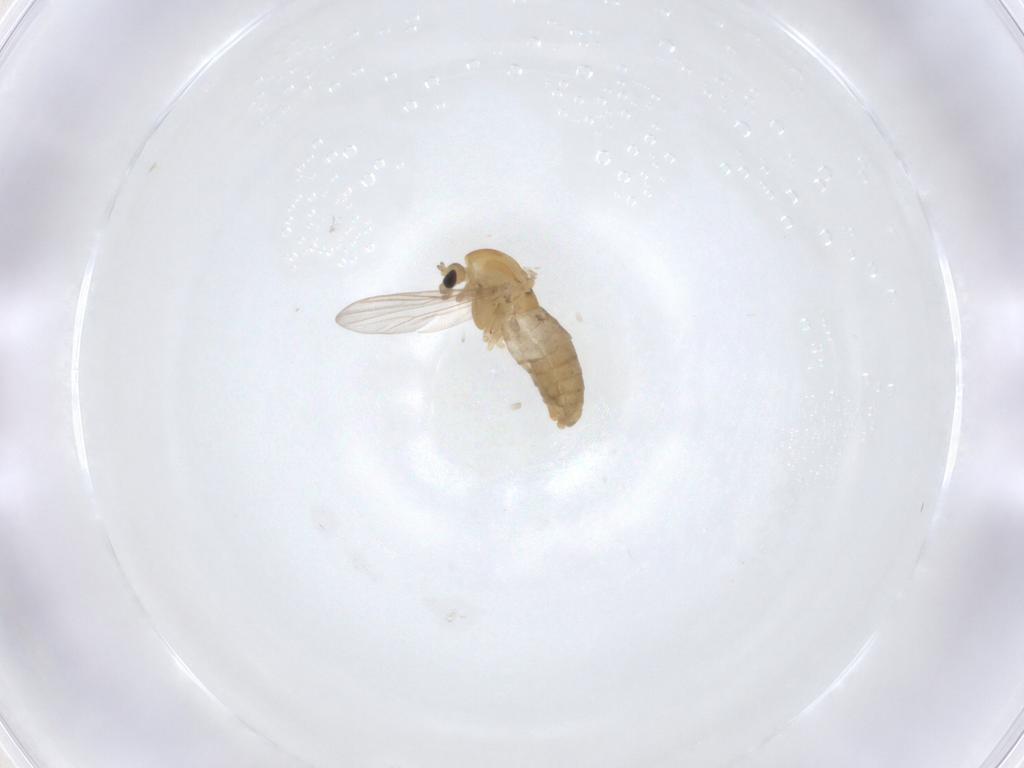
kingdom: Animalia
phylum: Arthropoda
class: Insecta
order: Diptera
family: Chironomidae
